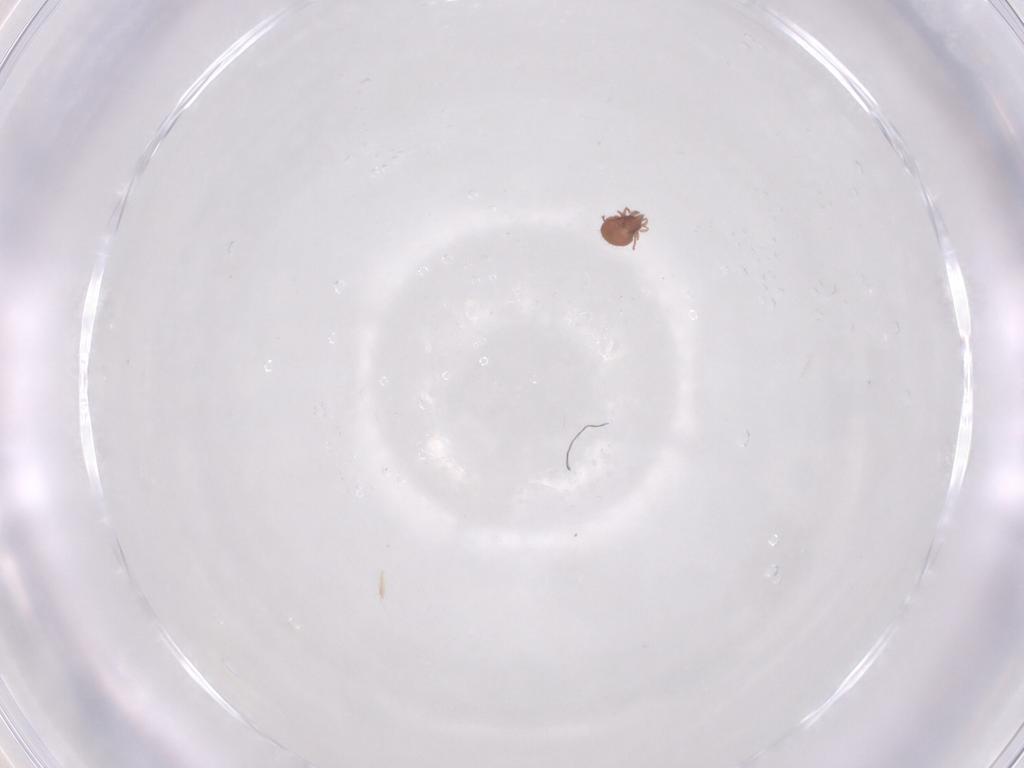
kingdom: Animalia
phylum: Arthropoda
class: Arachnida
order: Sarcoptiformes
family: Oribatulidae
